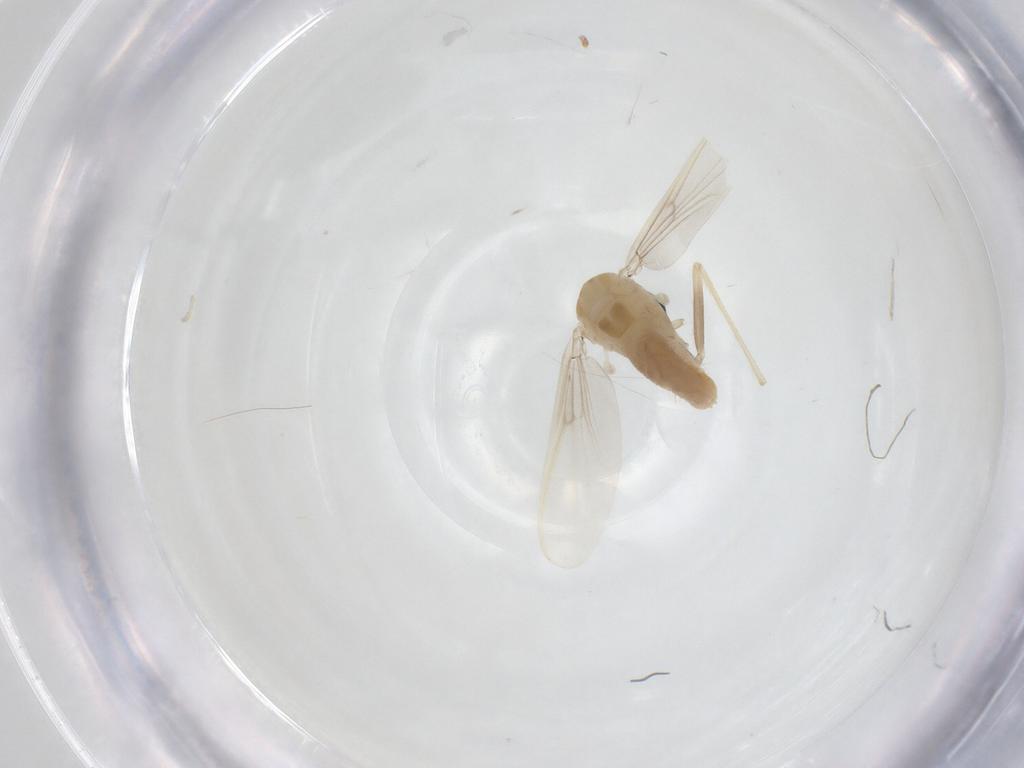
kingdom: Animalia
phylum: Arthropoda
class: Insecta
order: Diptera
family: Chironomidae
